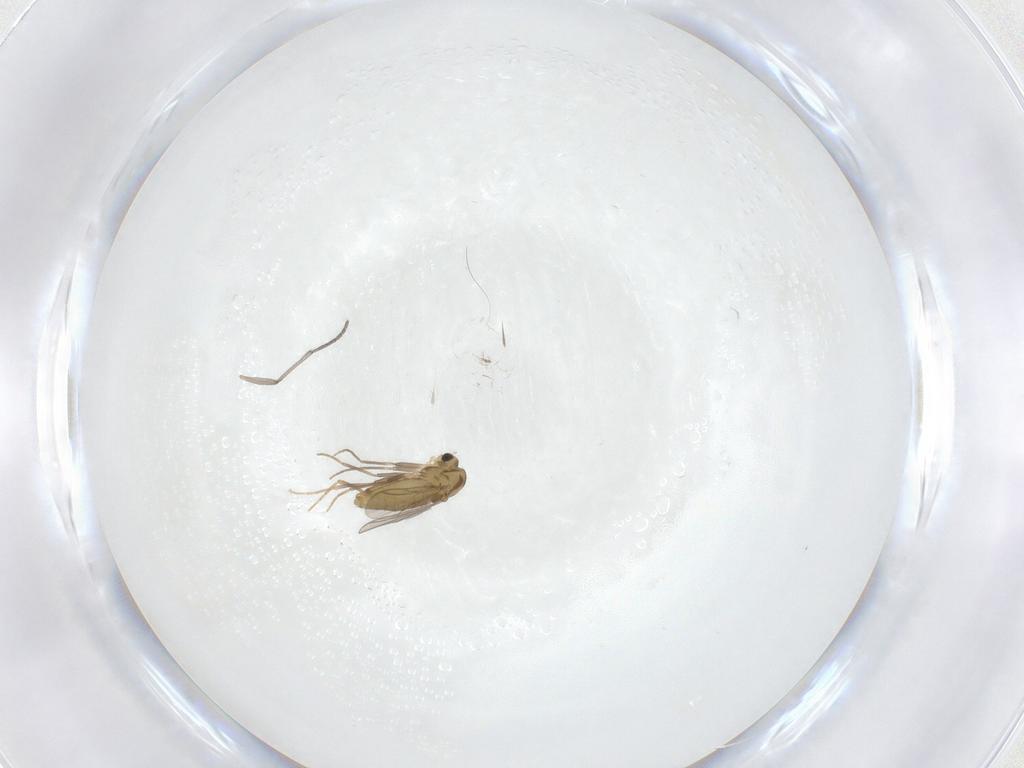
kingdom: Animalia
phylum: Arthropoda
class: Insecta
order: Diptera
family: Chironomidae
